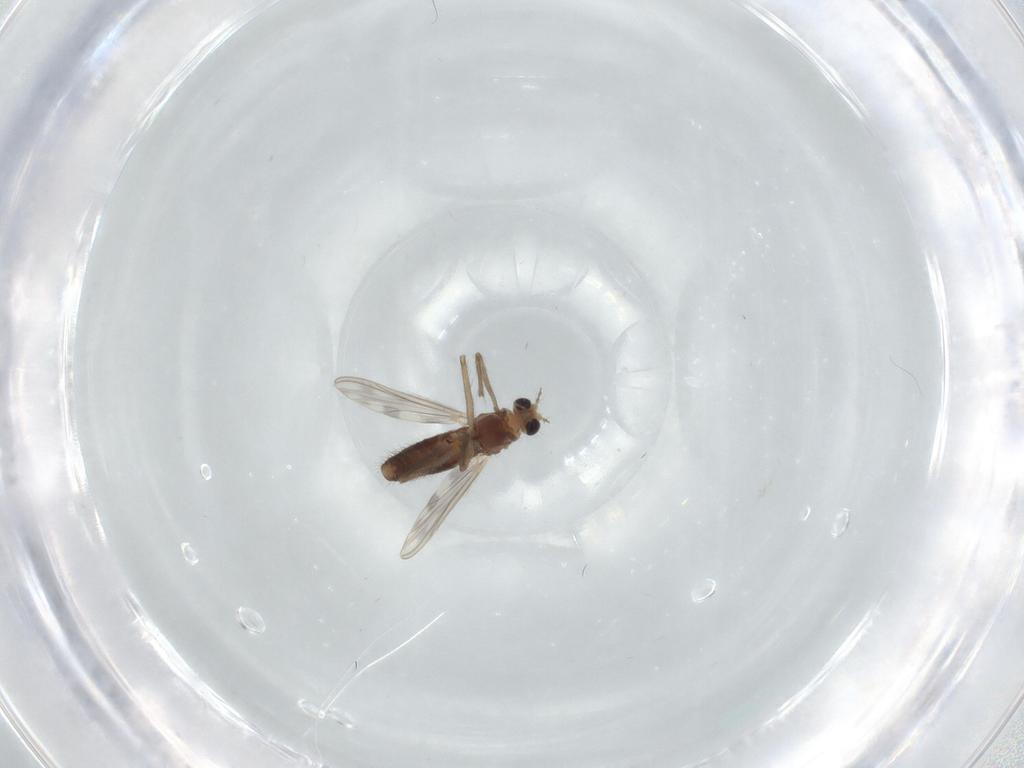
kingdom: Animalia
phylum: Arthropoda
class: Insecta
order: Diptera
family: Chironomidae
